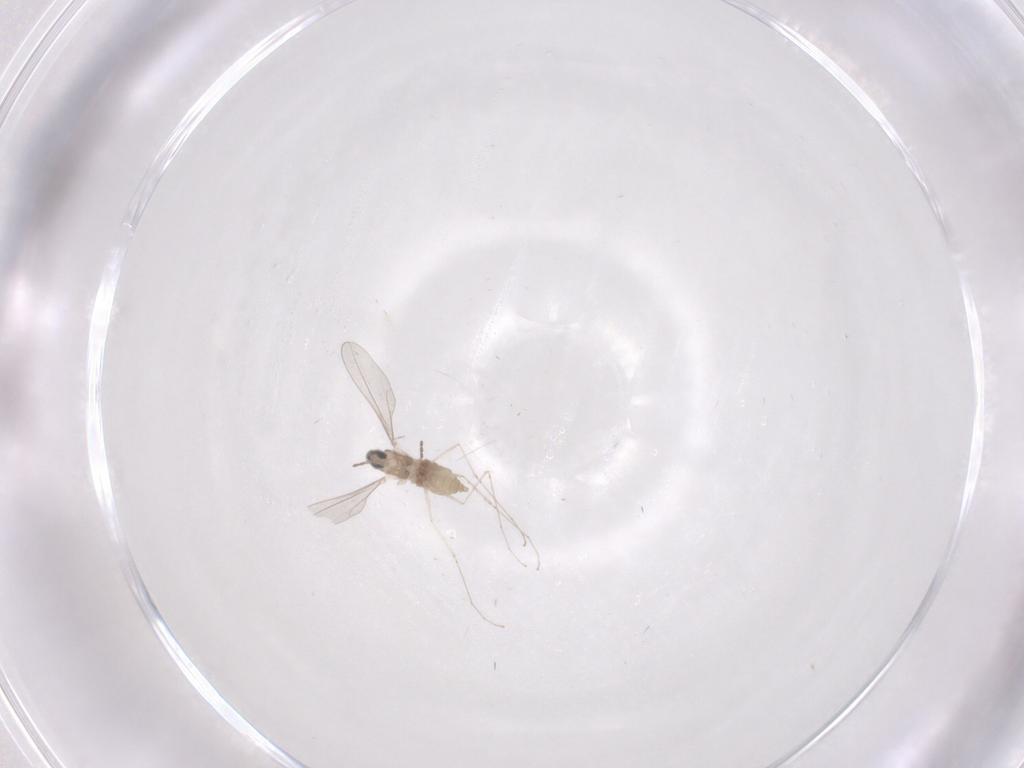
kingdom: Animalia
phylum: Arthropoda
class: Insecta
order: Diptera
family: Cecidomyiidae
